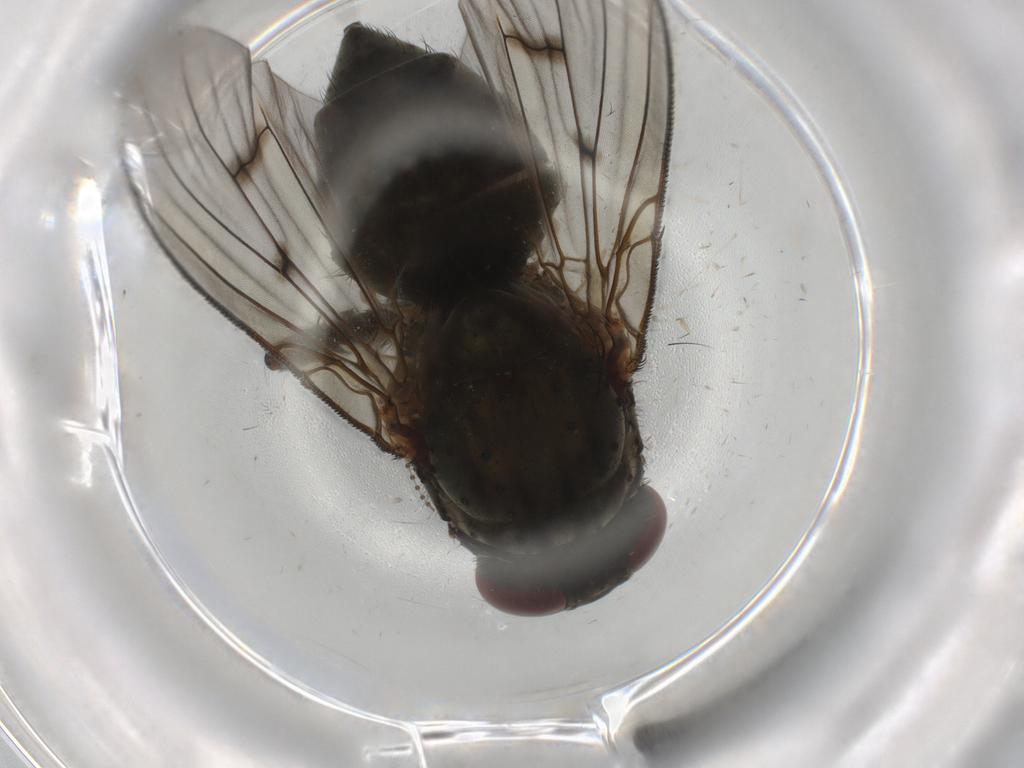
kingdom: Animalia
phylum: Arthropoda
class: Insecta
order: Diptera
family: Muscidae
